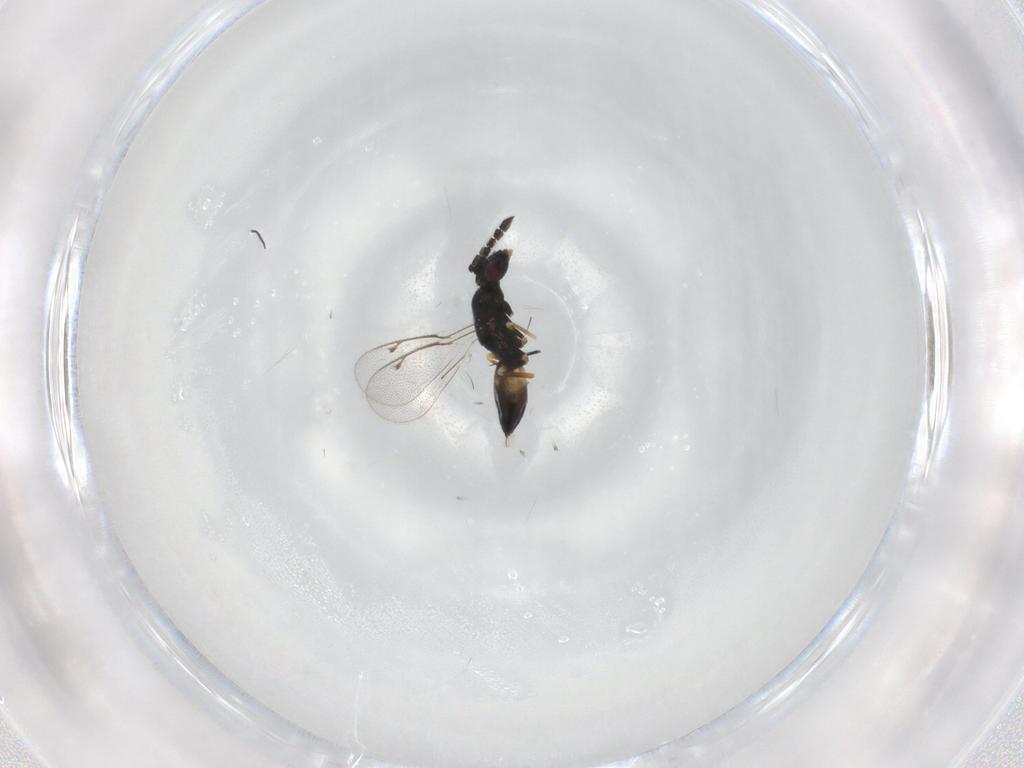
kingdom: Animalia
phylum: Arthropoda
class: Insecta
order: Hymenoptera
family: Eulophidae
